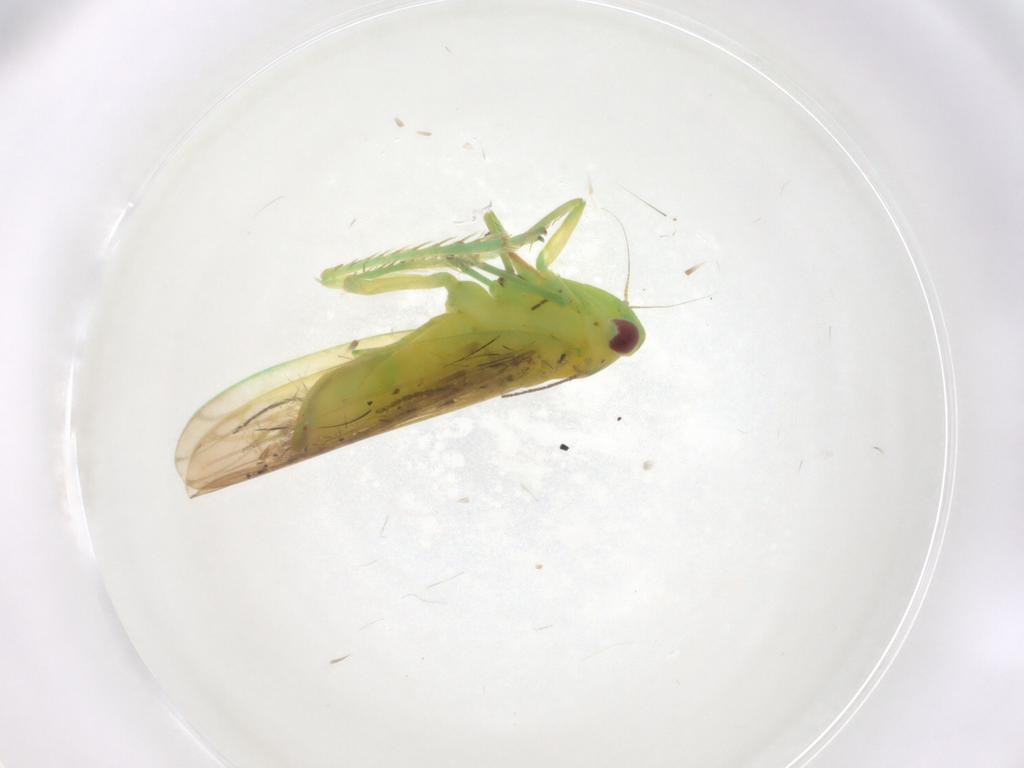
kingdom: Animalia
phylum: Arthropoda
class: Insecta
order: Hemiptera
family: Cicadellidae
